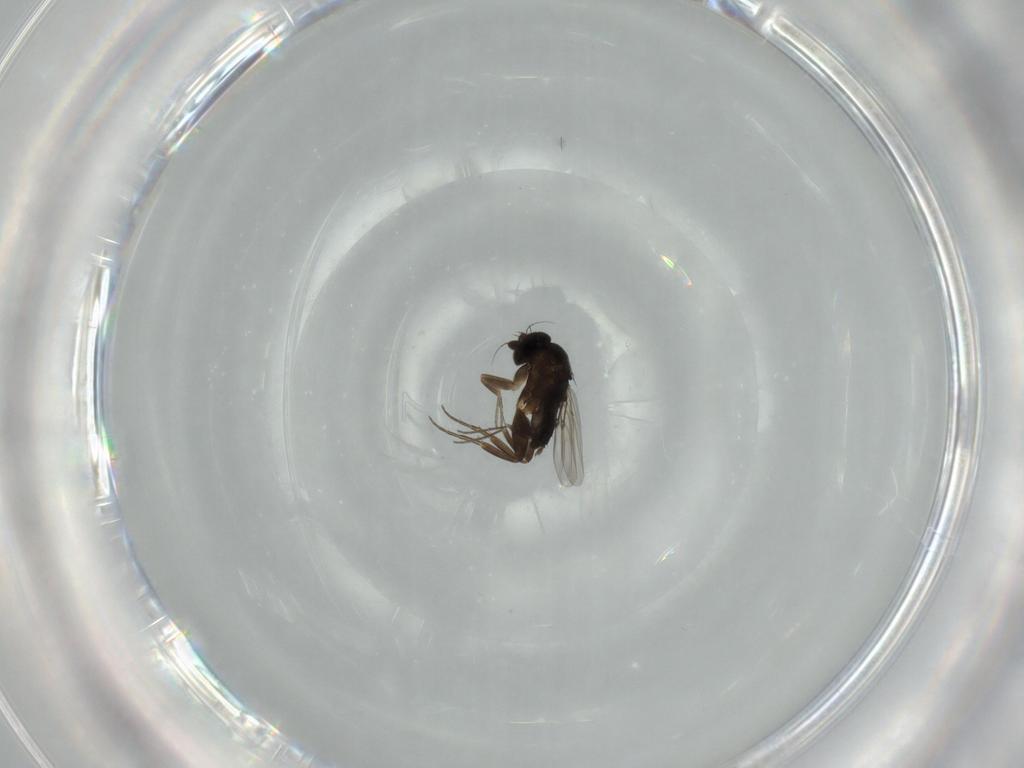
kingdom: Animalia
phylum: Arthropoda
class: Insecta
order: Diptera
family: Phoridae
